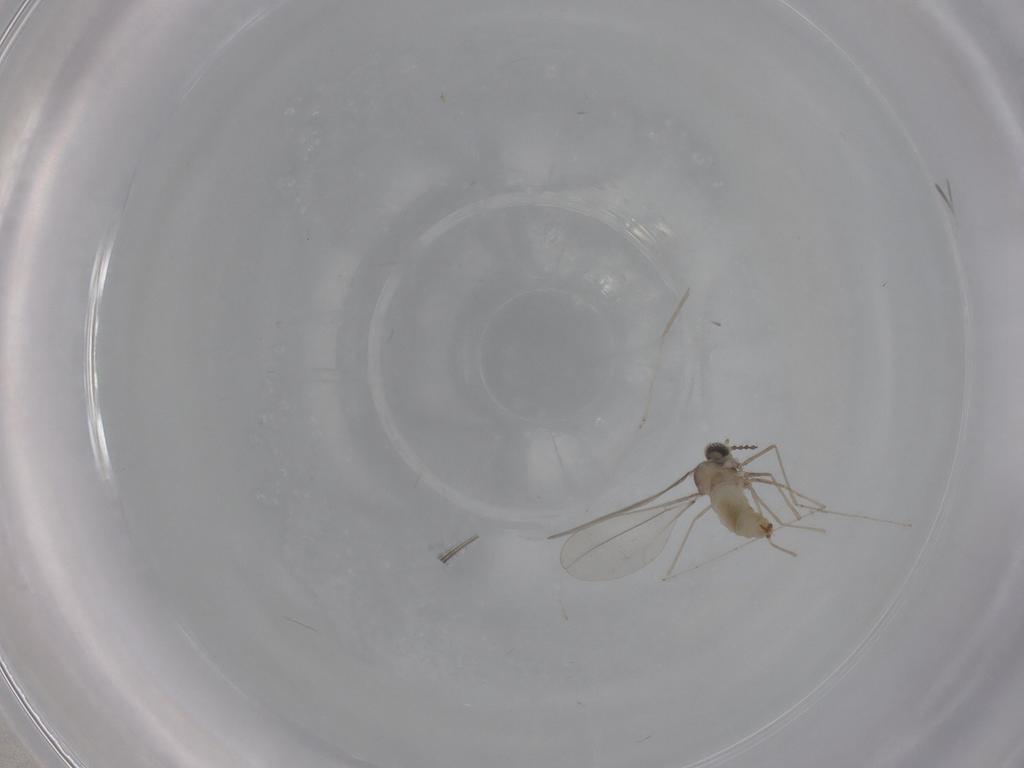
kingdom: Animalia
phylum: Arthropoda
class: Insecta
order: Diptera
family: Cecidomyiidae
